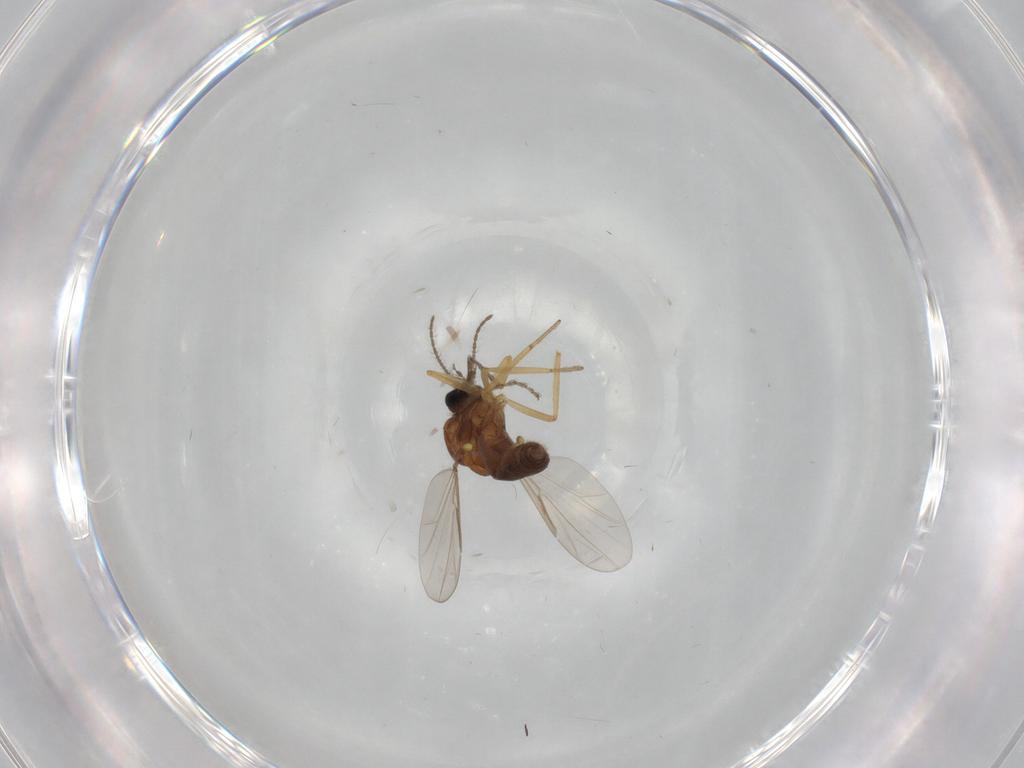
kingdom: Animalia
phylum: Arthropoda
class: Insecta
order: Diptera
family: Ceratopogonidae
